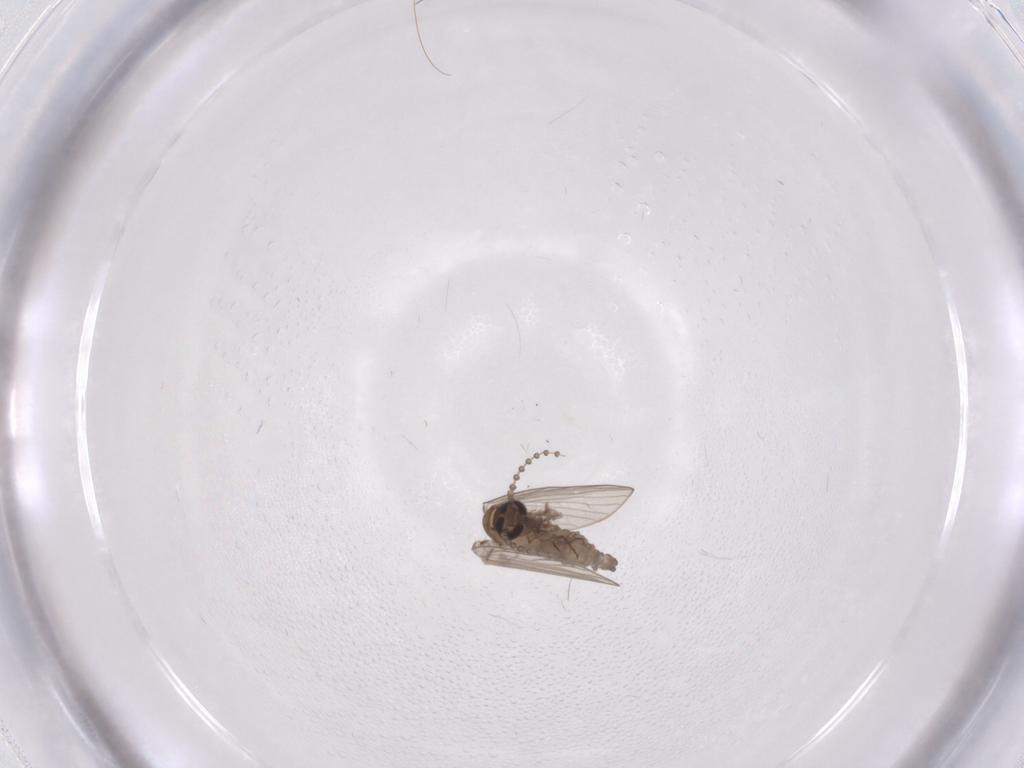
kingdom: Animalia
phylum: Arthropoda
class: Insecta
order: Diptera
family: Psychodidae
